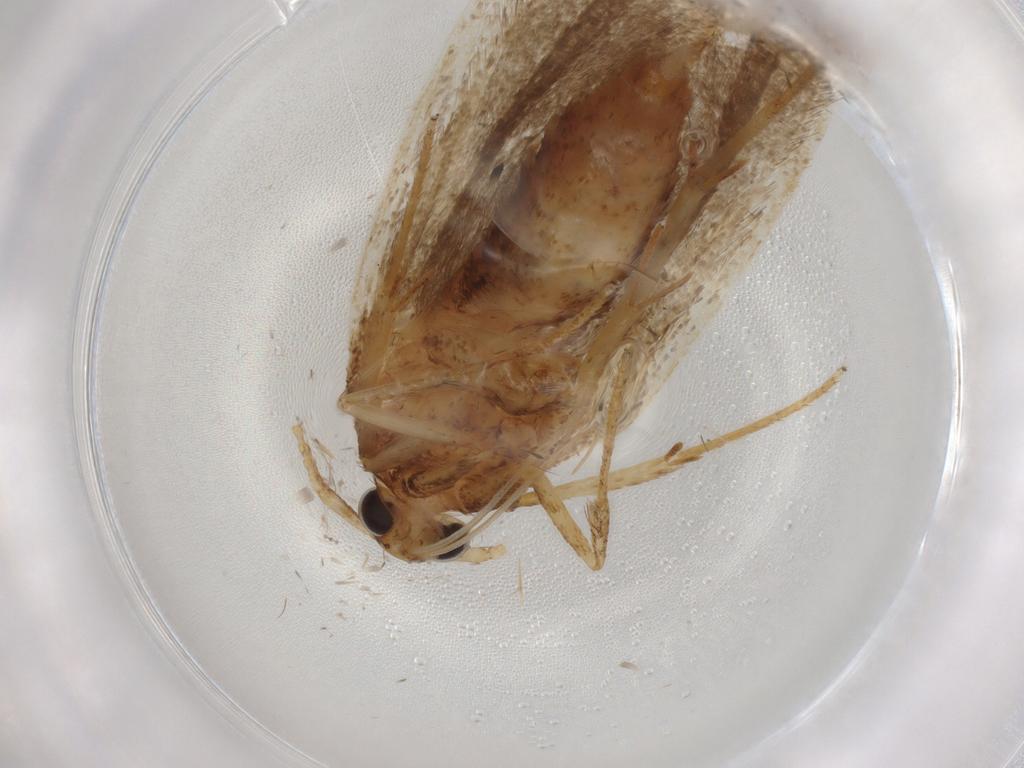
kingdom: Animalia
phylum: Arthropoda
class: Insecta
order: Lepidoptera
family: Lecithoceridae
